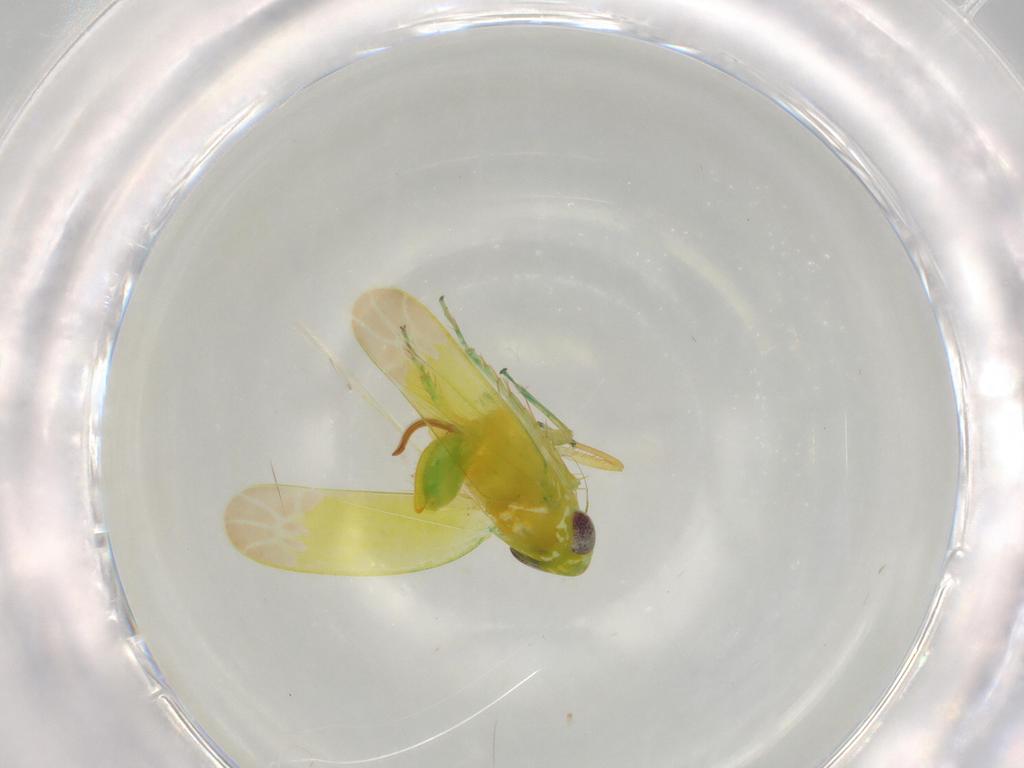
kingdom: Animalia
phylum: Arthropoda
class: Insecta
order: Hemiptera
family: Cicadellidae
